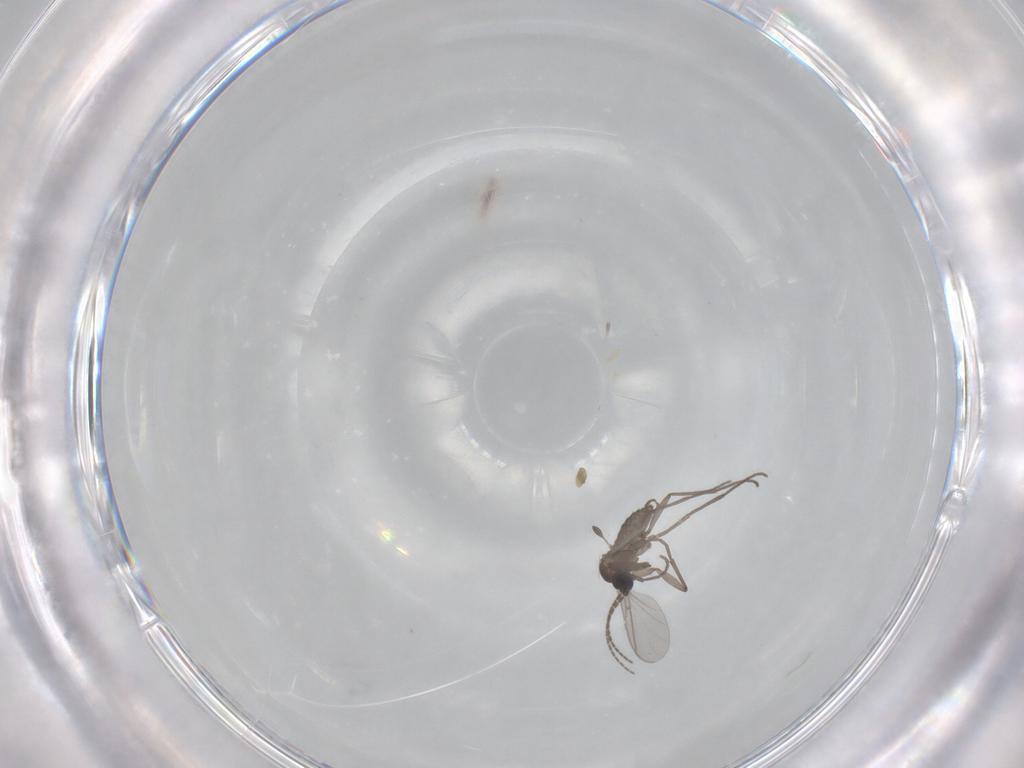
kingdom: Animalia
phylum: Arthropoda
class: Insecta
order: Diptera
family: Sciaridae
